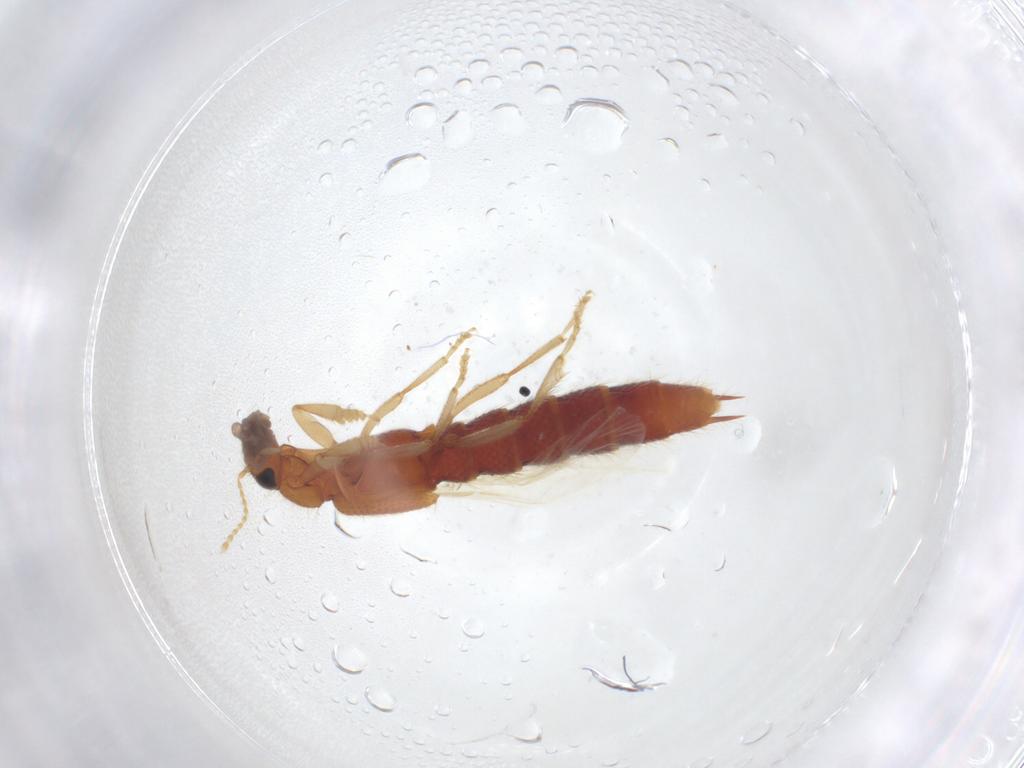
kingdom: Animalia
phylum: Arthropoda
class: Insecta
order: Coleoptera
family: Staphylinidae
